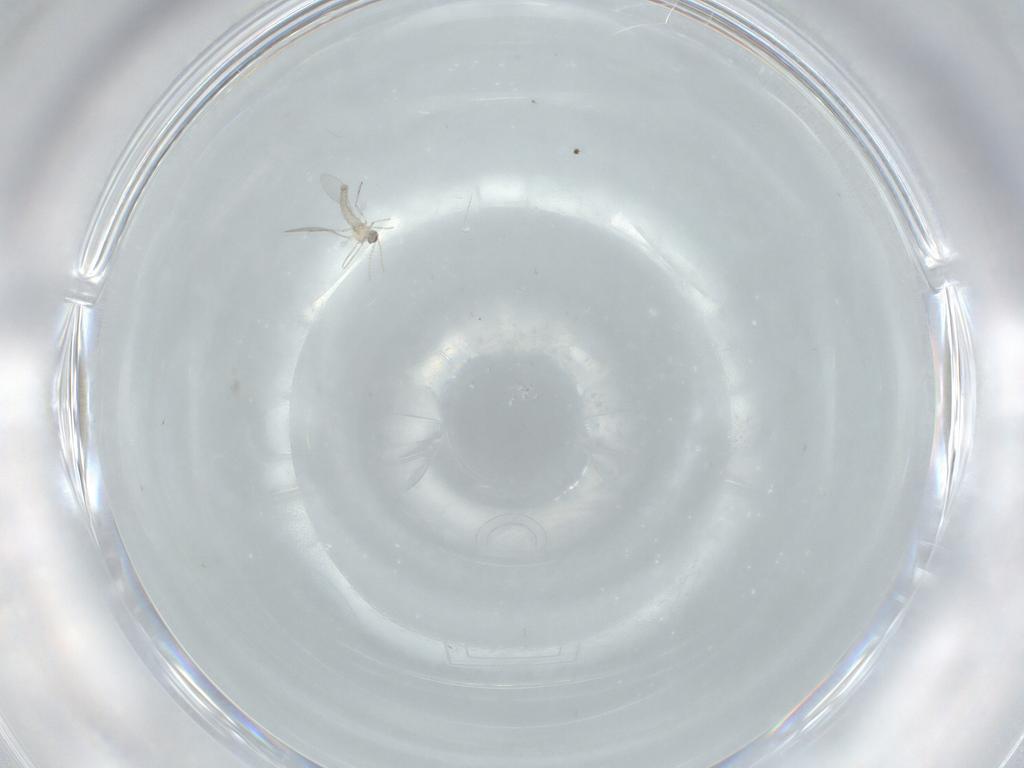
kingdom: Animalia
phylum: Arthropoda
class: Insecta
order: Diptera
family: Cecidomyiidae
